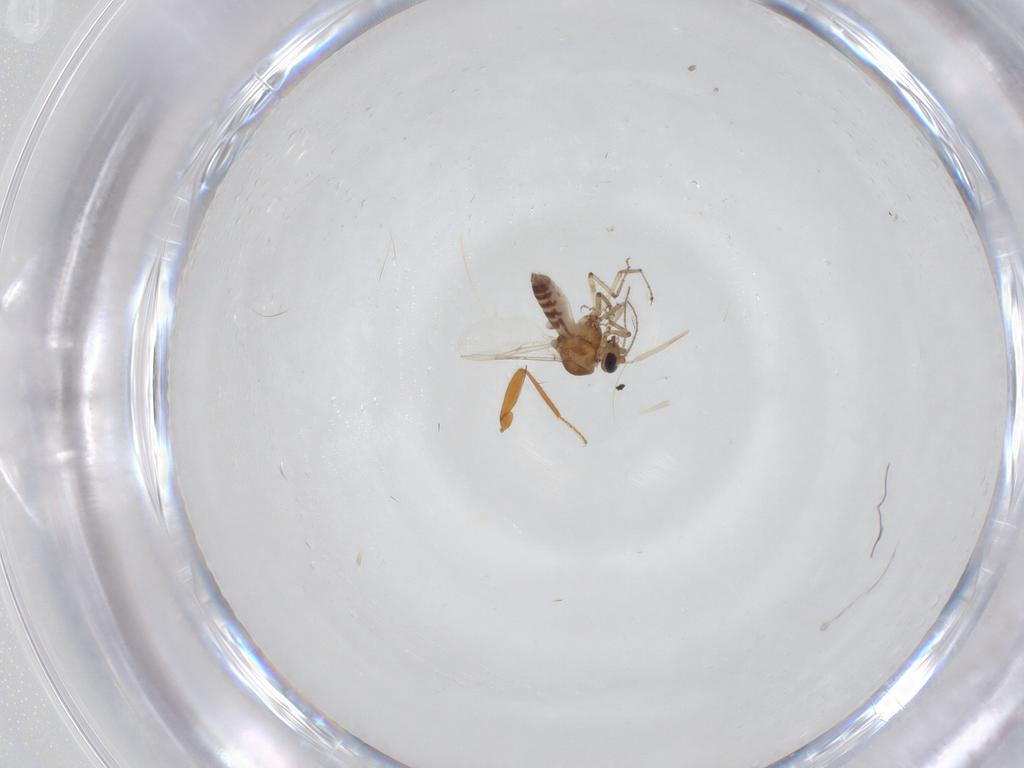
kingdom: Animalia
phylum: Arthropoda
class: Insecta
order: Diptera
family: Ceratopogonidae
